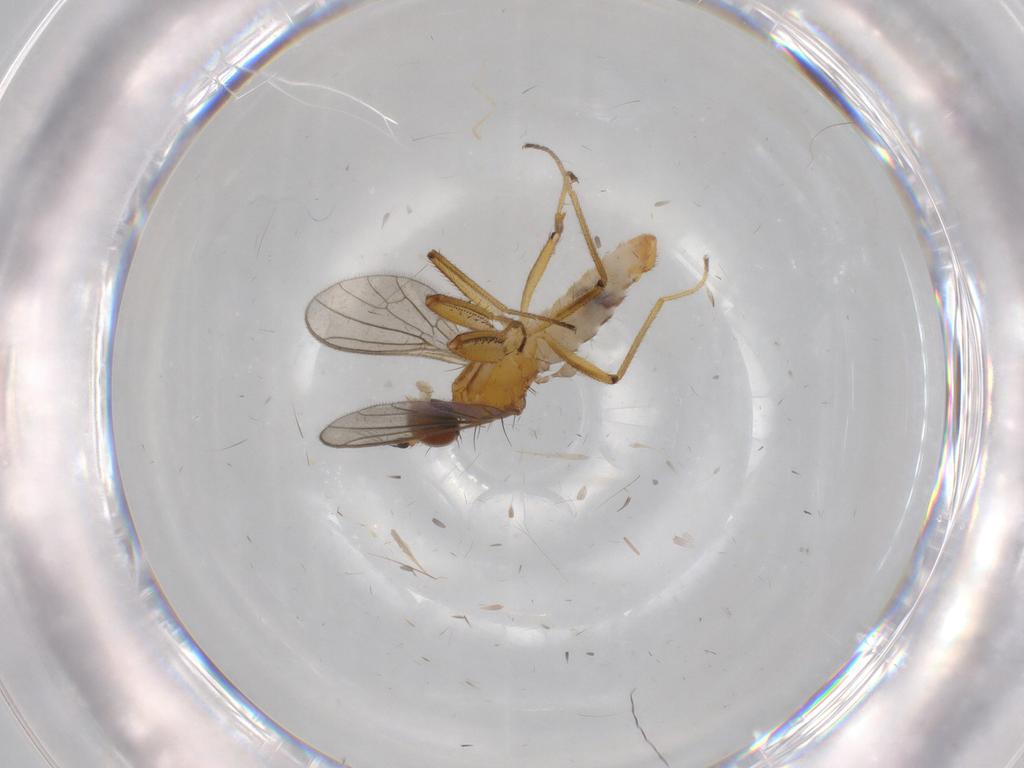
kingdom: Animalia
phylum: Arthropoda
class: Insecta
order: Diptera
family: Empididae
